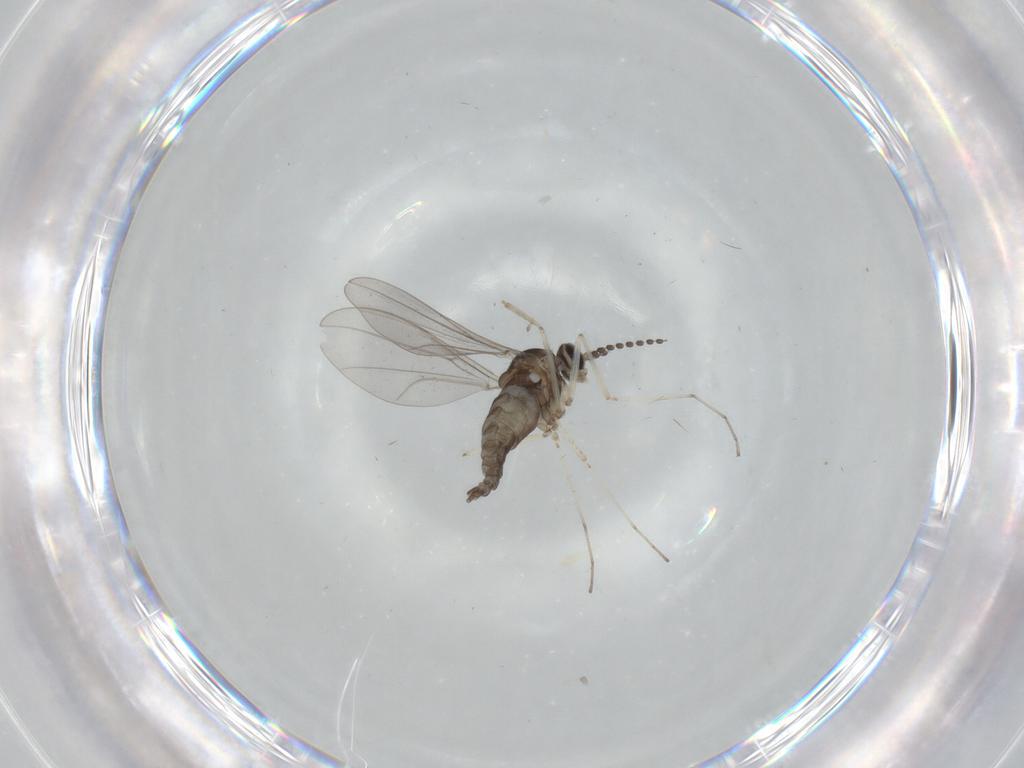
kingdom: Animalia
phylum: Arthropoda
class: Insecta
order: Diptera
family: Cecidomyiidae
